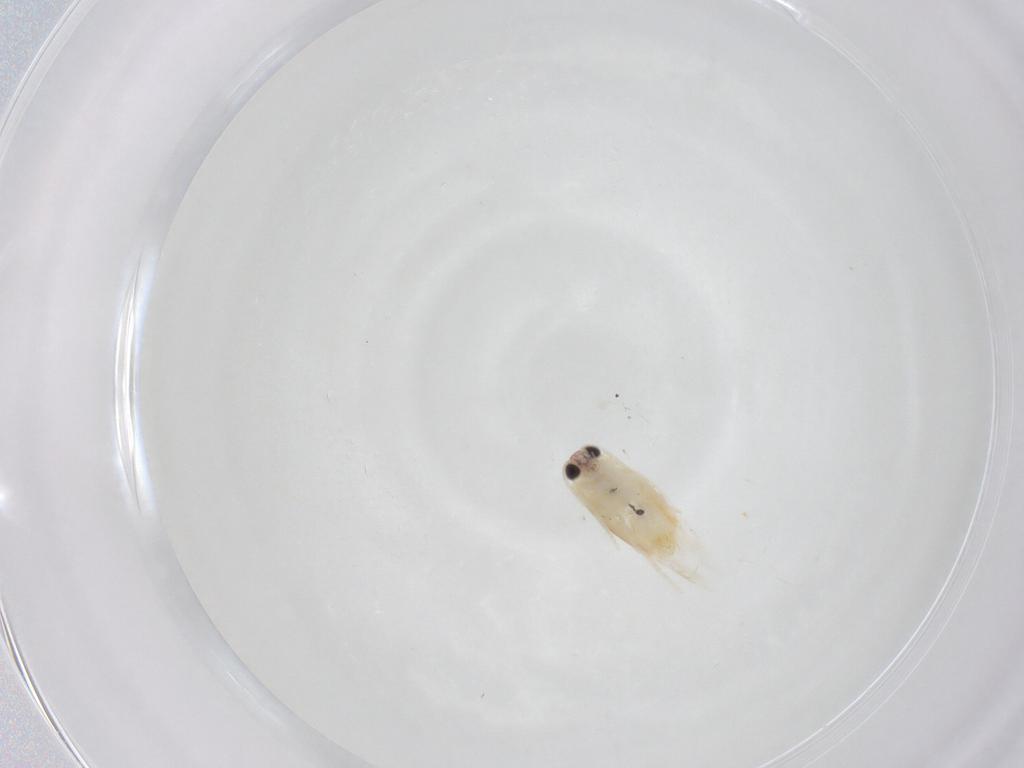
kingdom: Animalia
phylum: Arthropoda
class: Insecta
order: Lepidoptera
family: Nepticulidae
